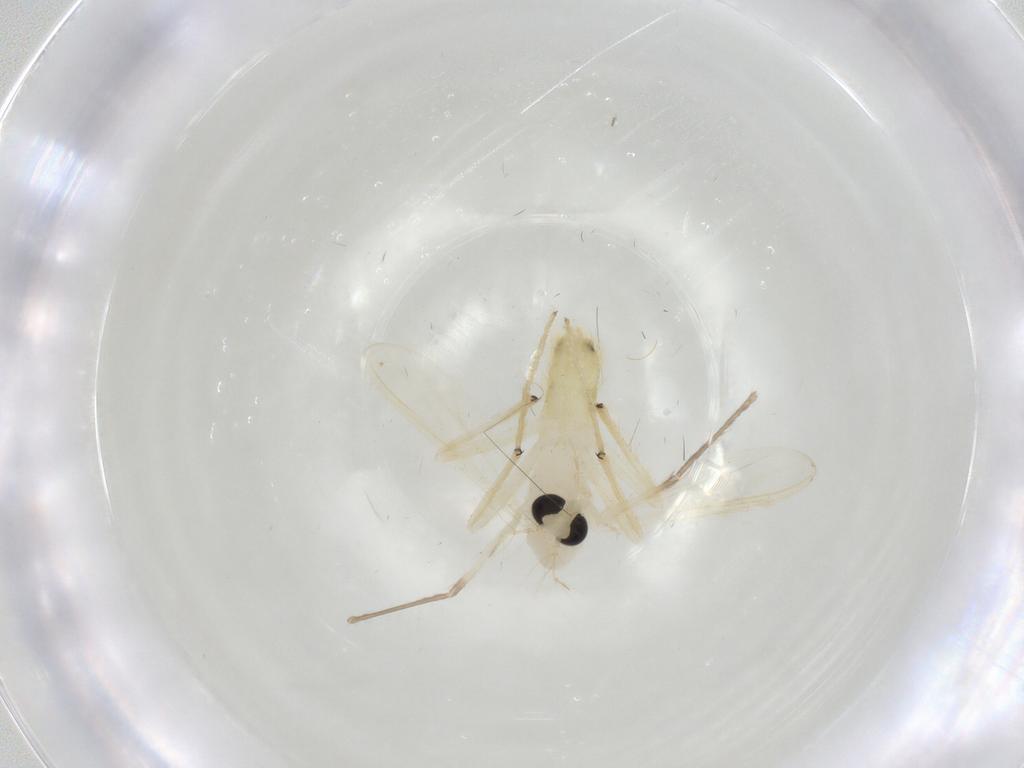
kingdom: Animalia
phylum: Arthropoda
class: Insecta
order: Diptera
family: Chironomidae
